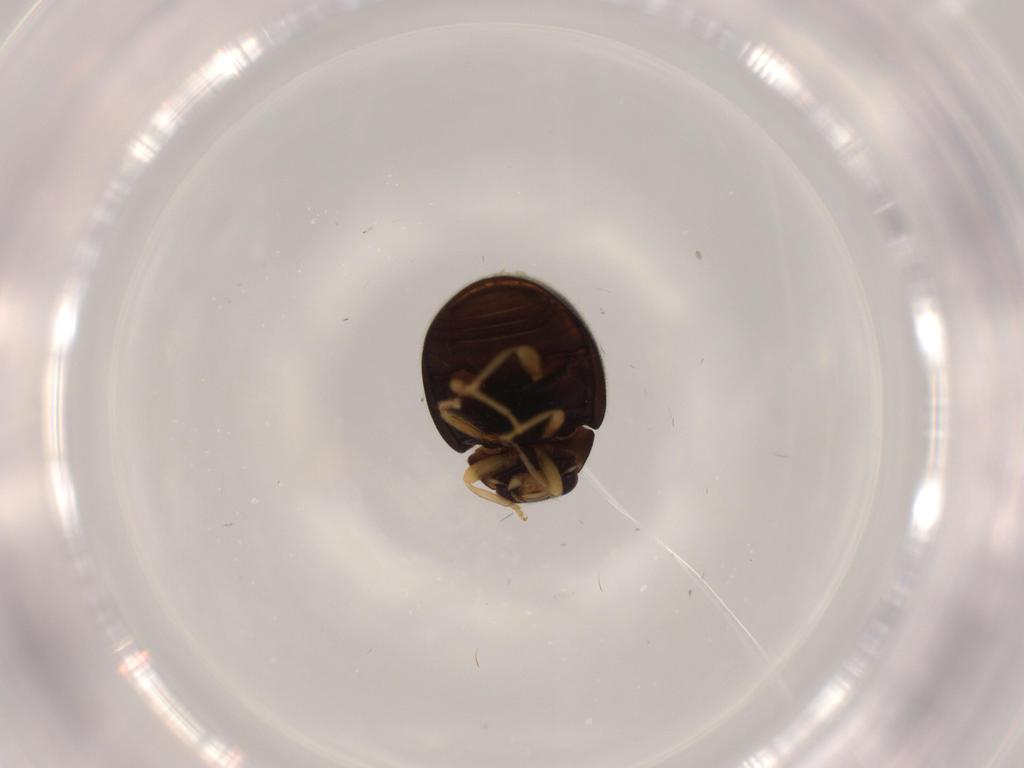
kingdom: Animalia
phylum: Arthropoda
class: Insecta
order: Coleoptera
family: Coccinellidae
